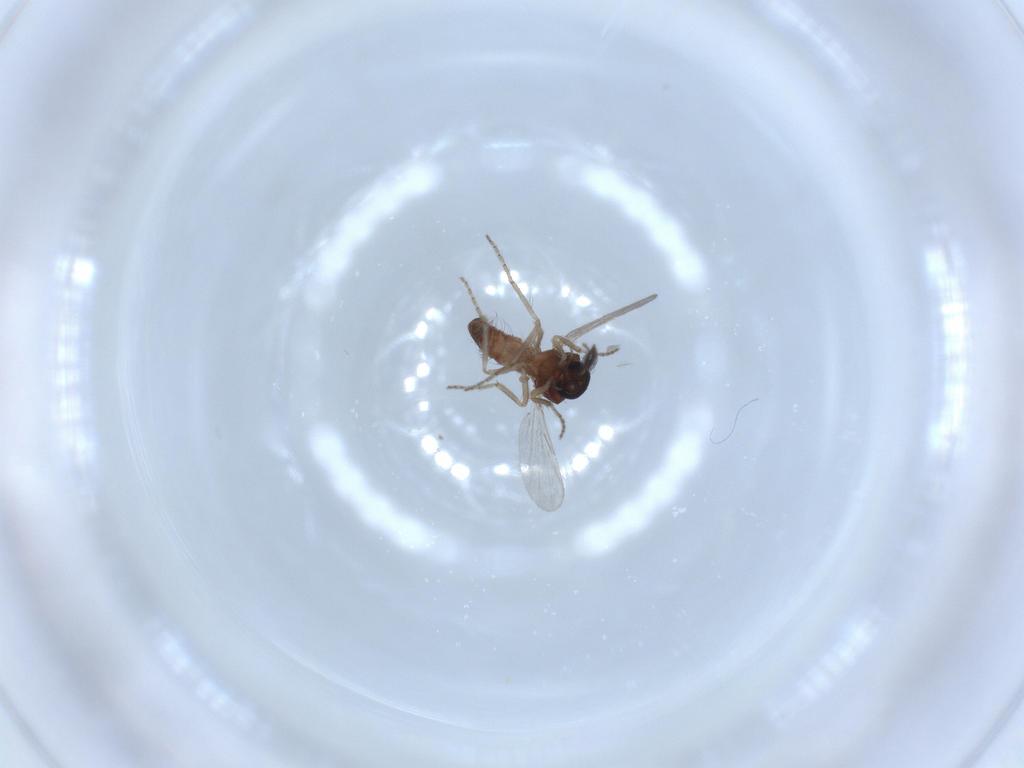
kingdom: Animalia
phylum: Arthropoda
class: Insecta
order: Diptera
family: Ceratopogonidae
